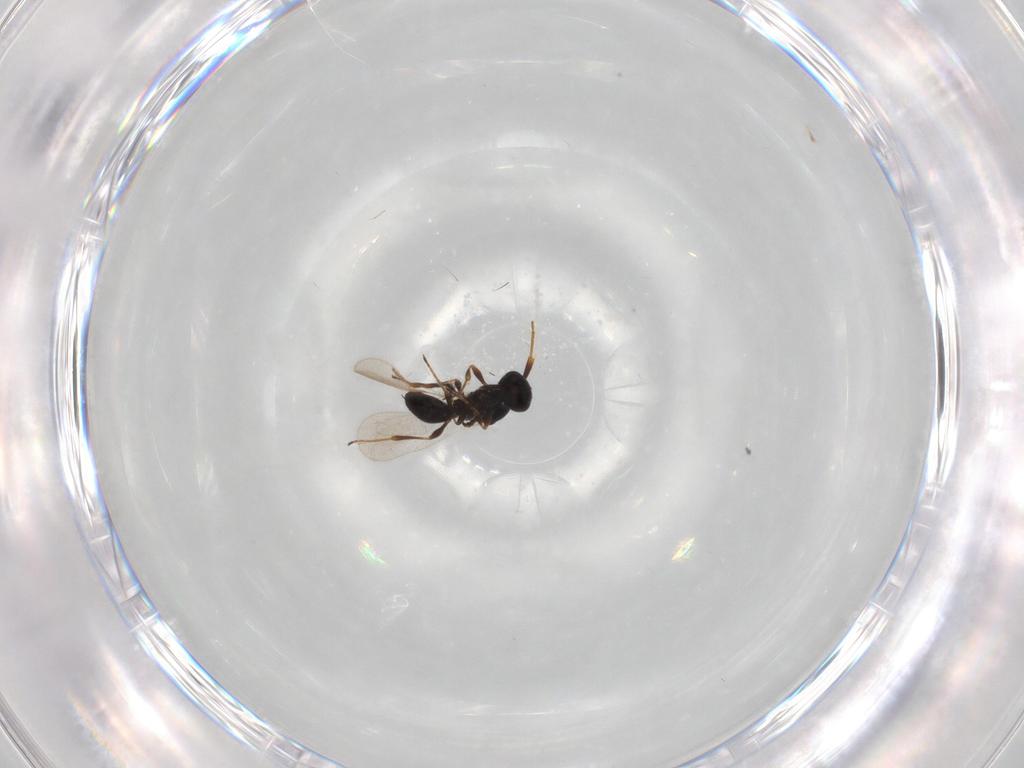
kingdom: Animalia
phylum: Arthropoda
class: Insecta
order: Hymenoptera
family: Platygastridae
